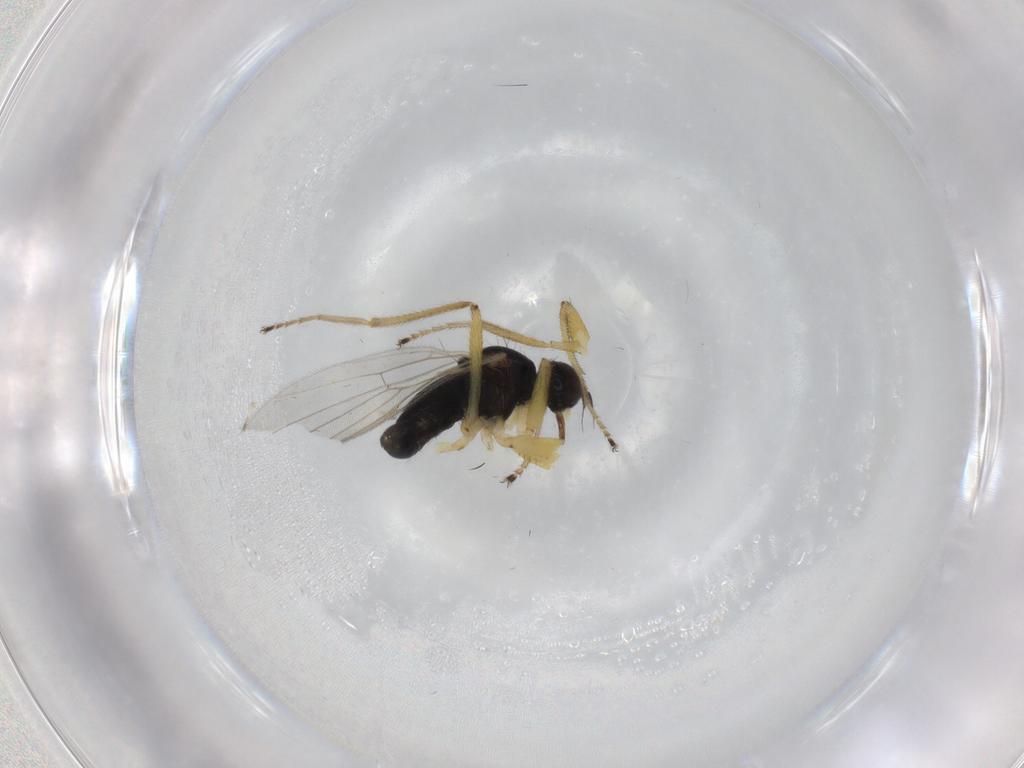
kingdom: Animalia
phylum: Arthropoda
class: Insecta
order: Diptera
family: Hybotidae
